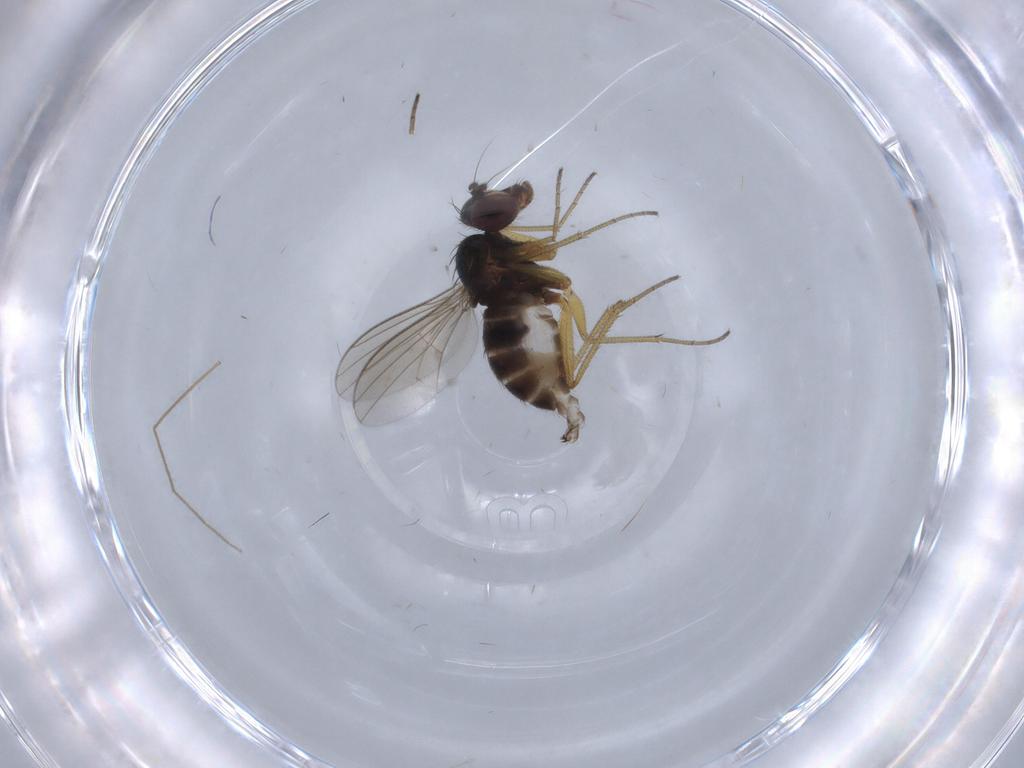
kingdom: Animalia
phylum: Arthropoda
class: Insecta
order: Diptera
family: Dolichopodidae
